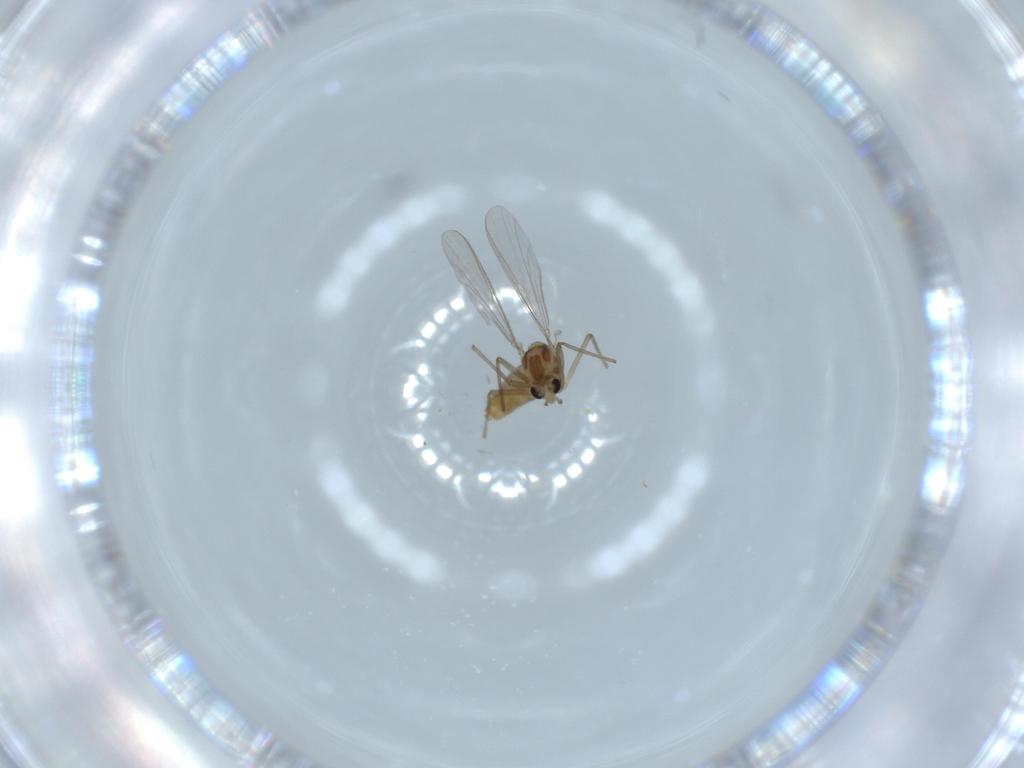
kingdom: Animalia
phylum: Arthropoda
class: Insecta
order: Diptera
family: Chironomidae
